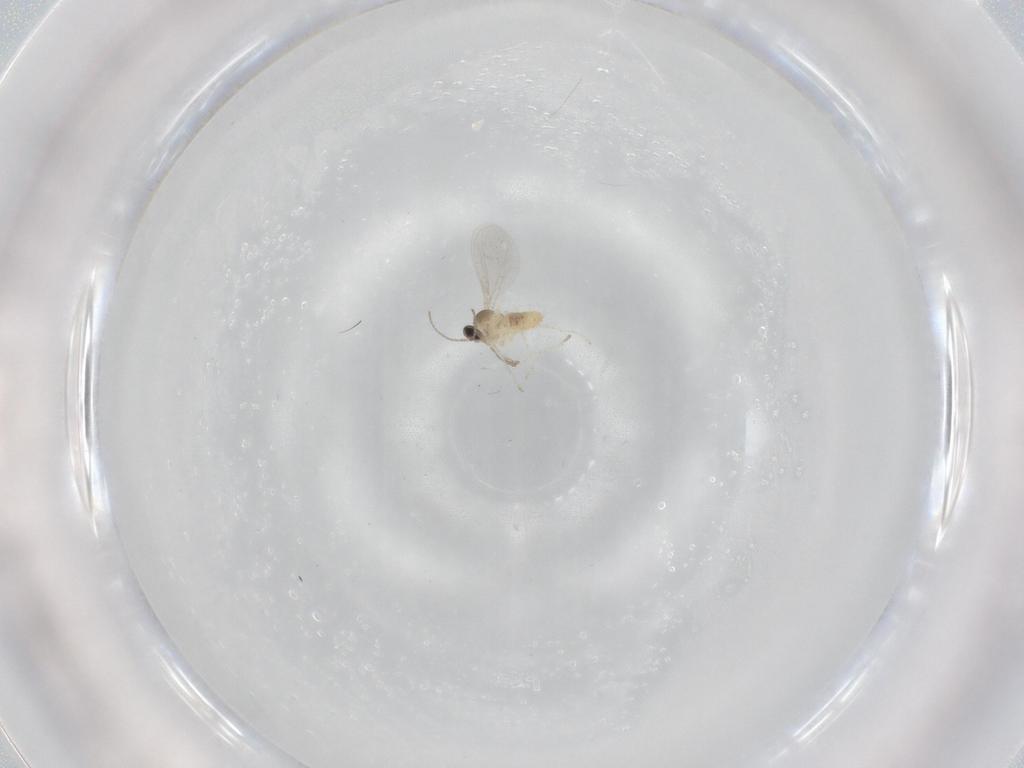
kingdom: Animalia
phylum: Arthropoda
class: Insecta
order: Diptera
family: Cecidomyiidae
